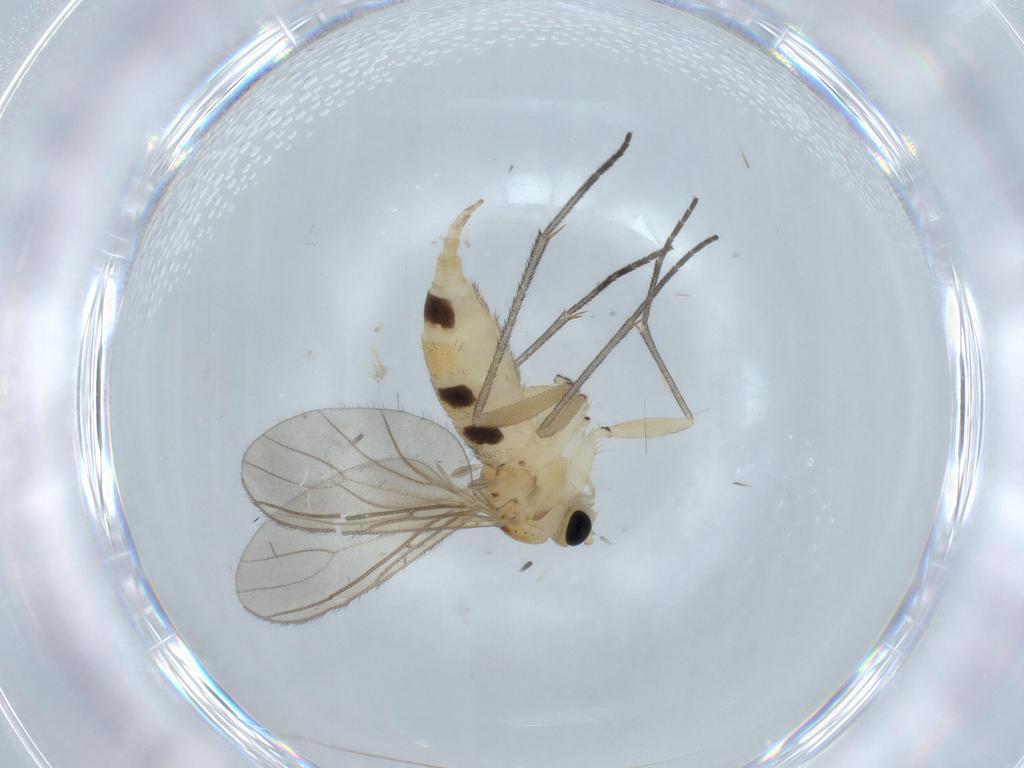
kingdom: Animalia
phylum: Arthropoda
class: Insecta
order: Diptera
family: Sciaridae
